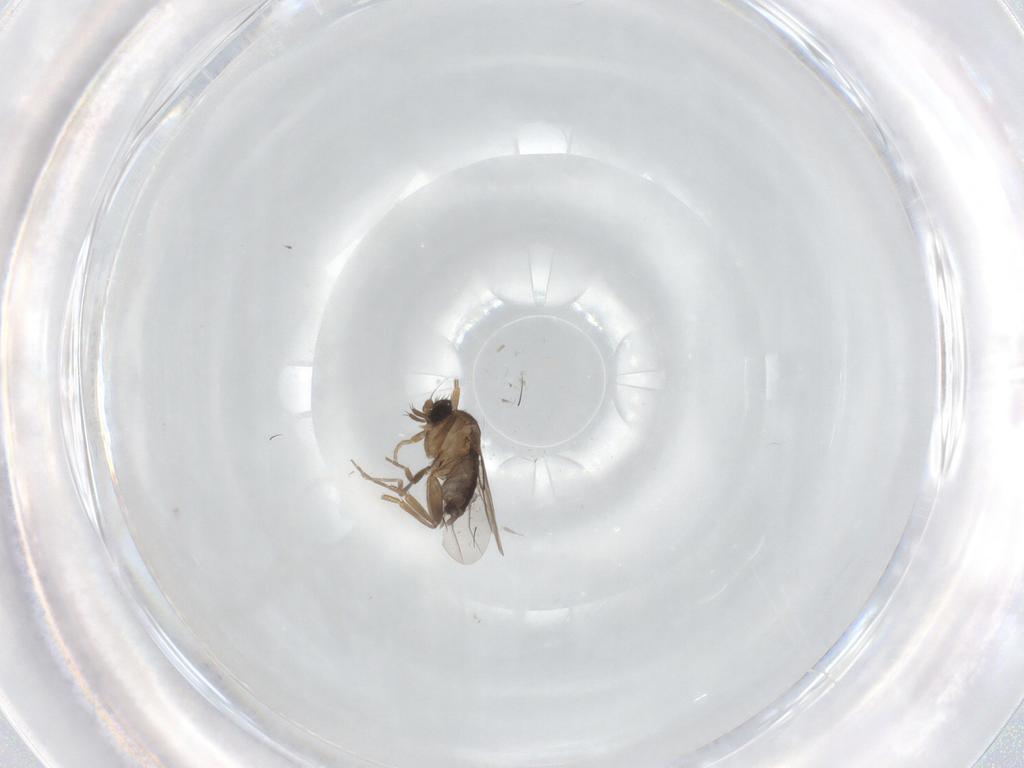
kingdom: Animalia
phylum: Arthropoda
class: Insecta
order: Diptera
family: Phoridae
